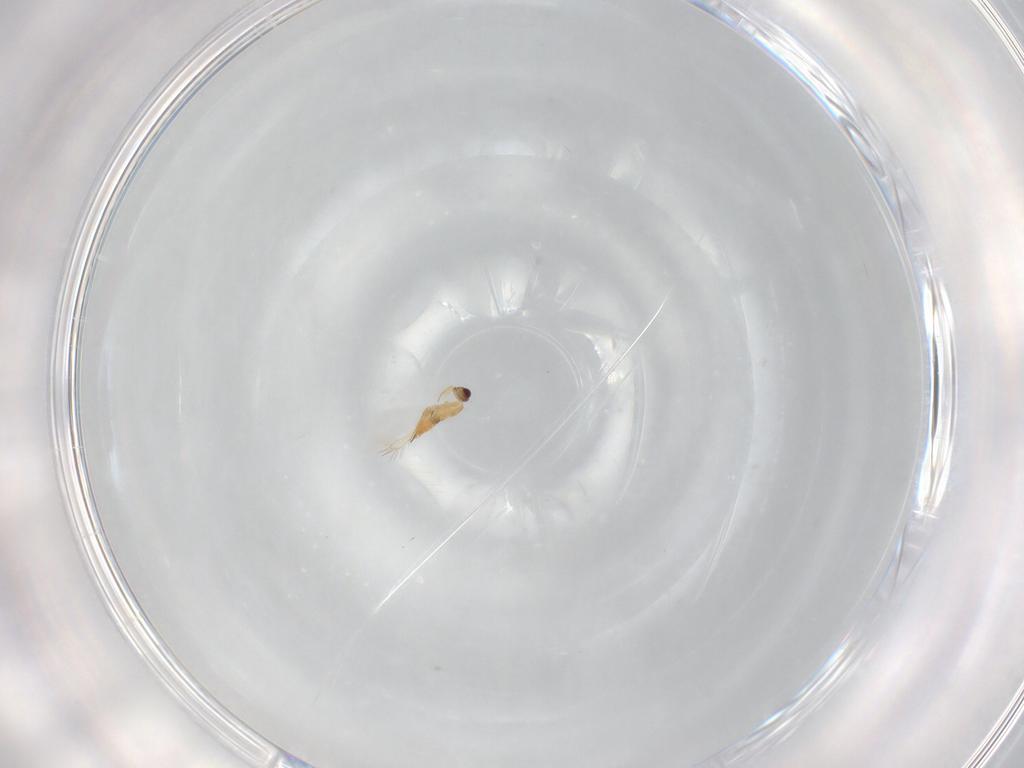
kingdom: Animalia
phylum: Arthropoda
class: Insecta
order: Hymenoptera
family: Mymaridae
